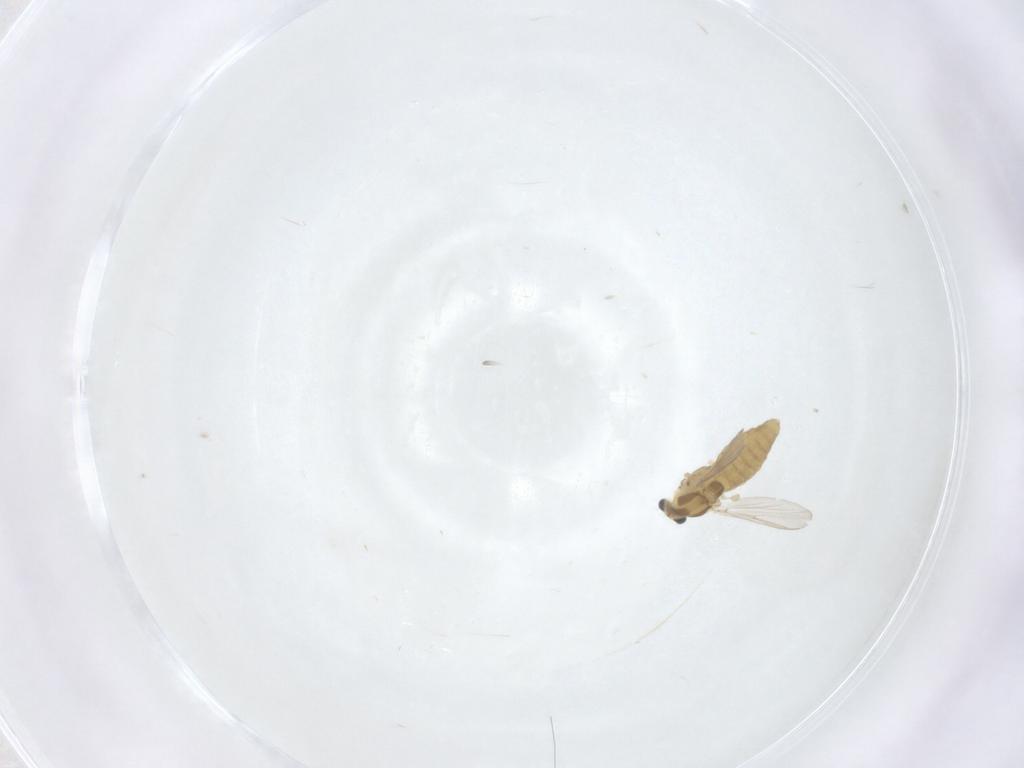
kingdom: Animalia
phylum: Arthropoda
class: Insecta
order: Diptera
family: Chironomidae
